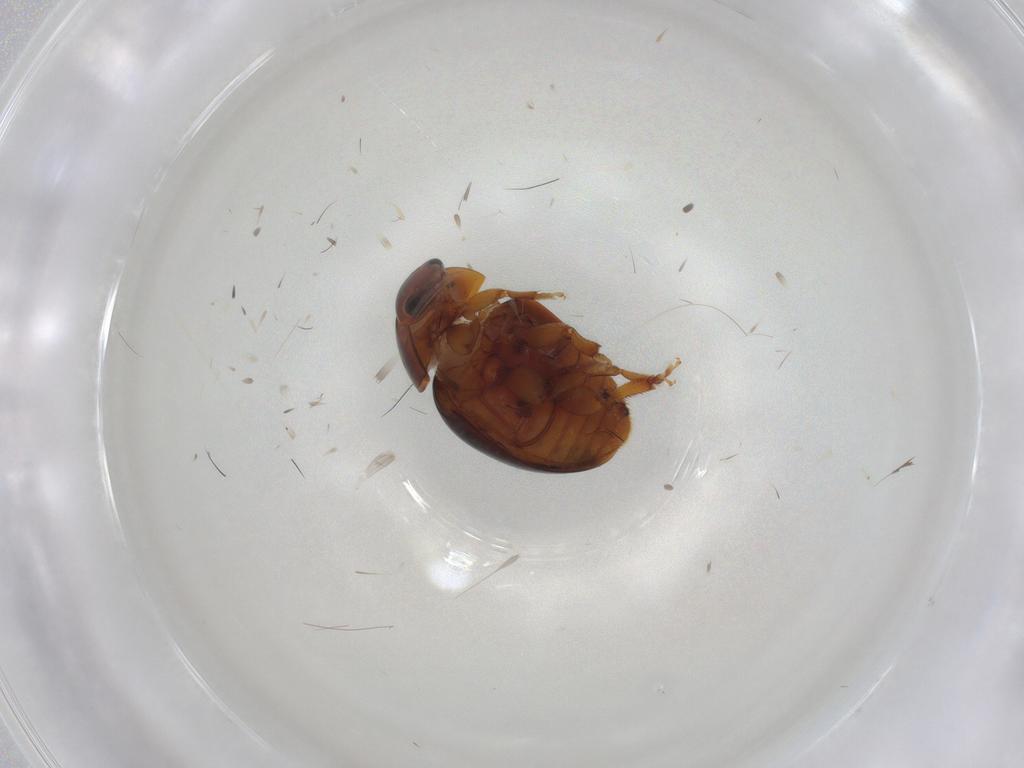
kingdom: Animalia
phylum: Arthropoda
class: Insecta
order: Coleoptera
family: Phalacridae
